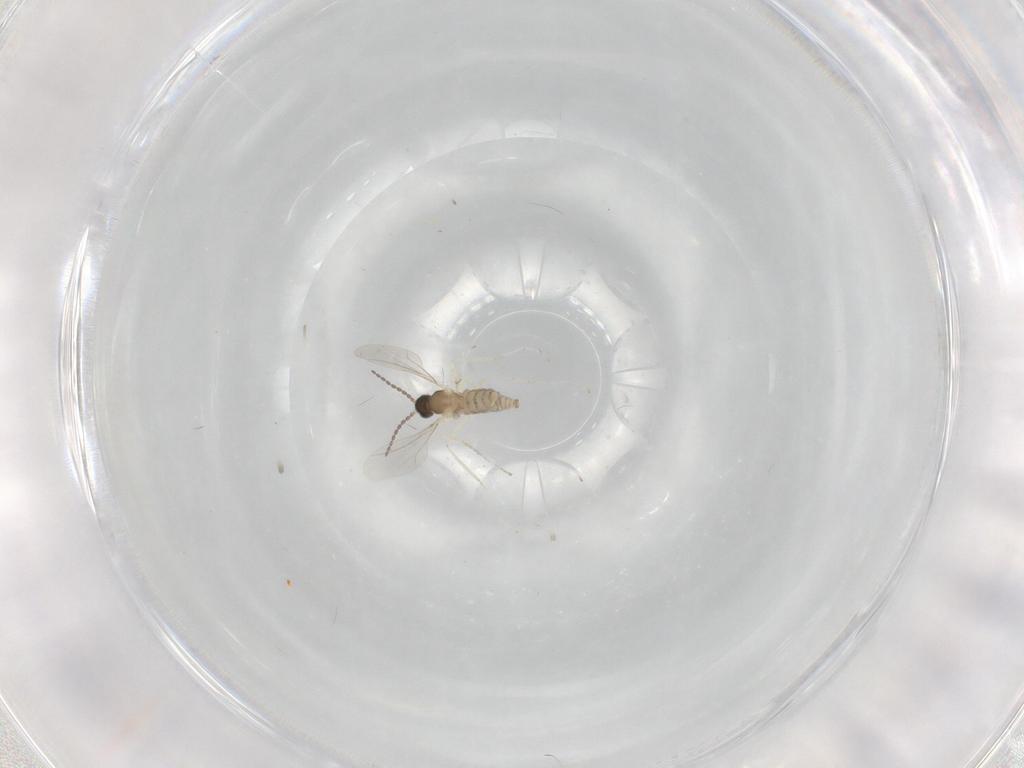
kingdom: Animalia
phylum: Arthropoda
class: Insecta
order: Diptera
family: Cecidomyiidae
